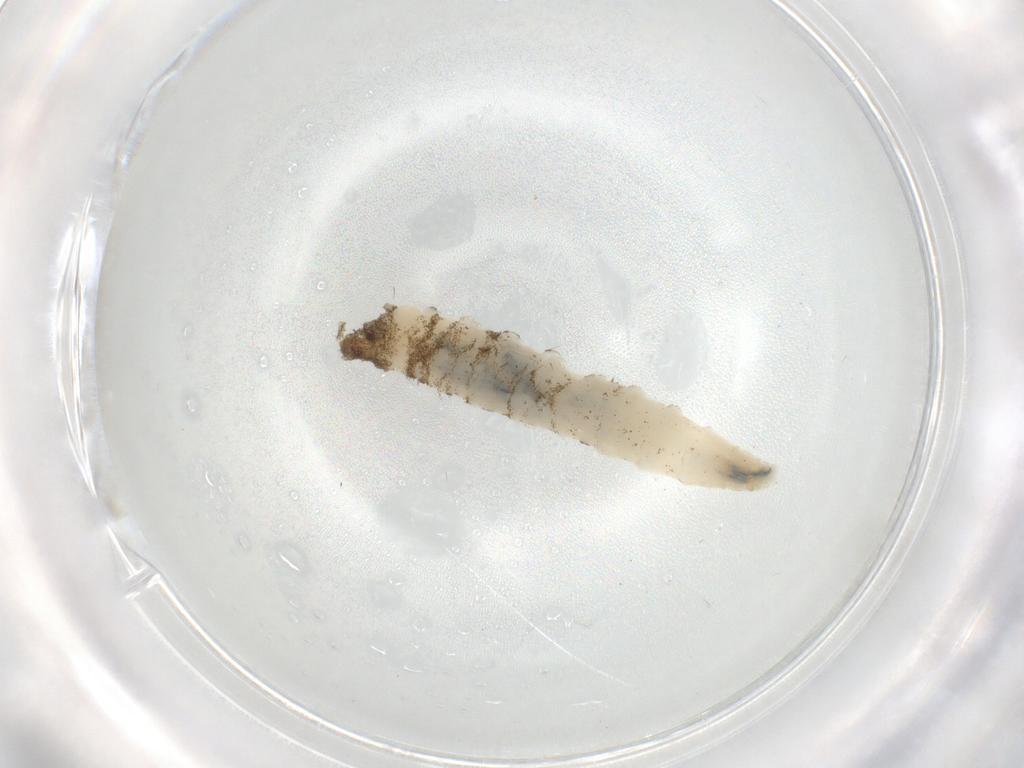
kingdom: Animalia
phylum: Arthropoda
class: Insecta
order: Diptera
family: Drosophilidae
